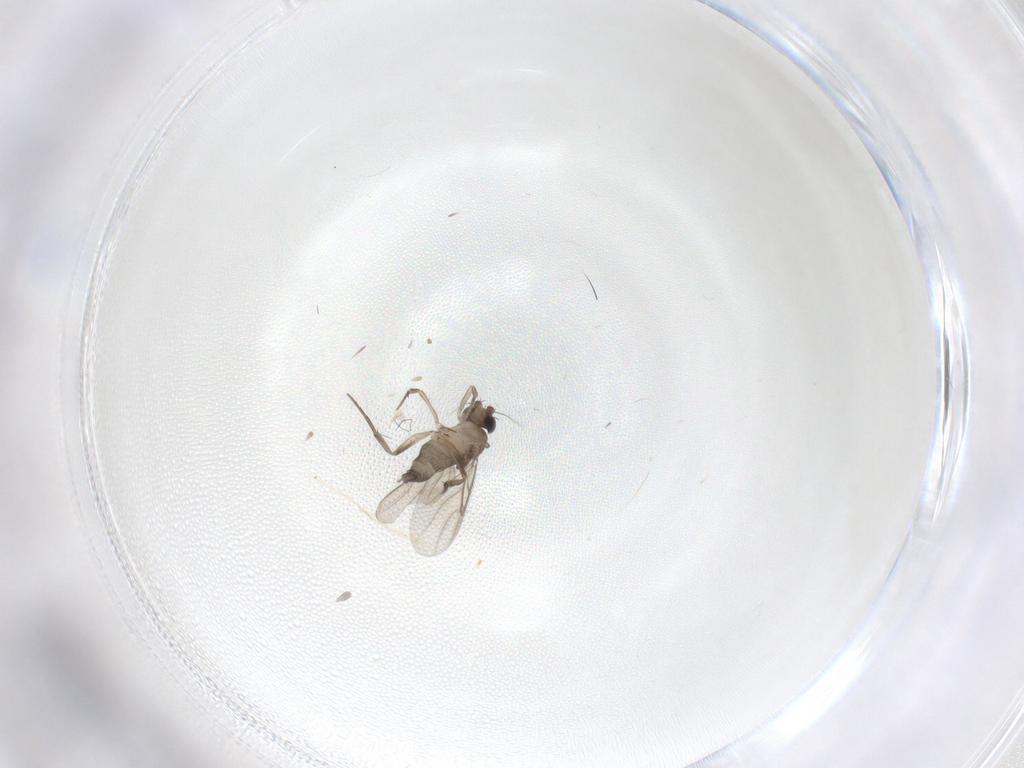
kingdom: Animalia
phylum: Arthropoda
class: Insecta
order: Diptera
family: Phoridae
